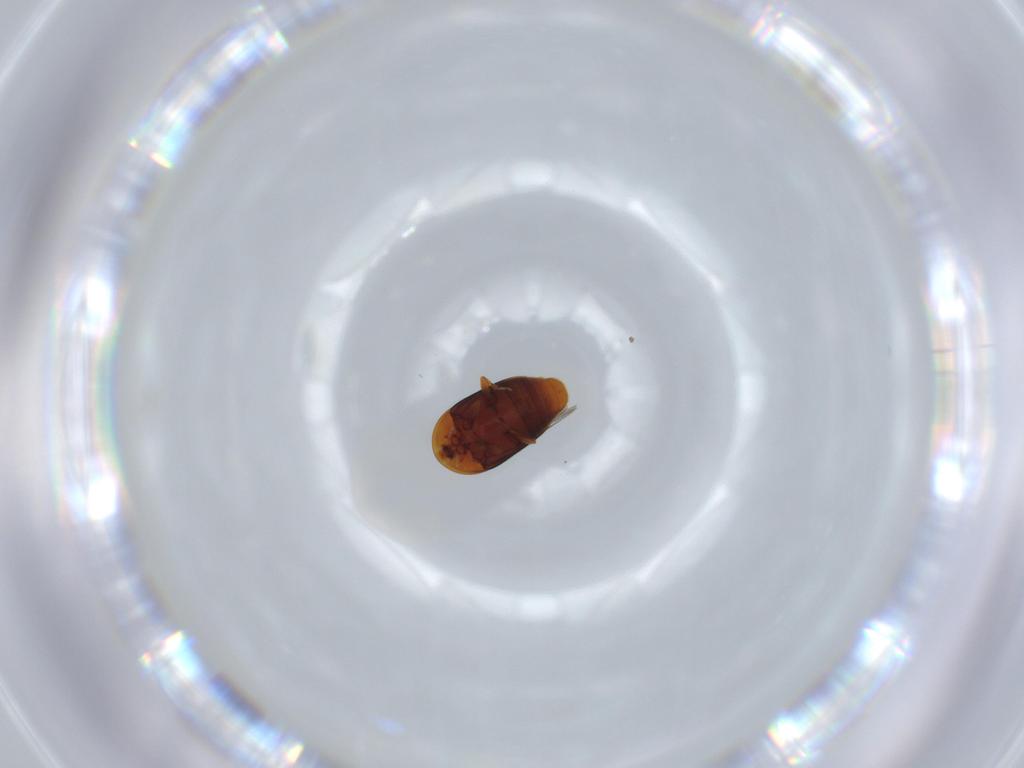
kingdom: Animalia
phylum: Arthropoda
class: Insecta
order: Coleoptera
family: Corylophidae
